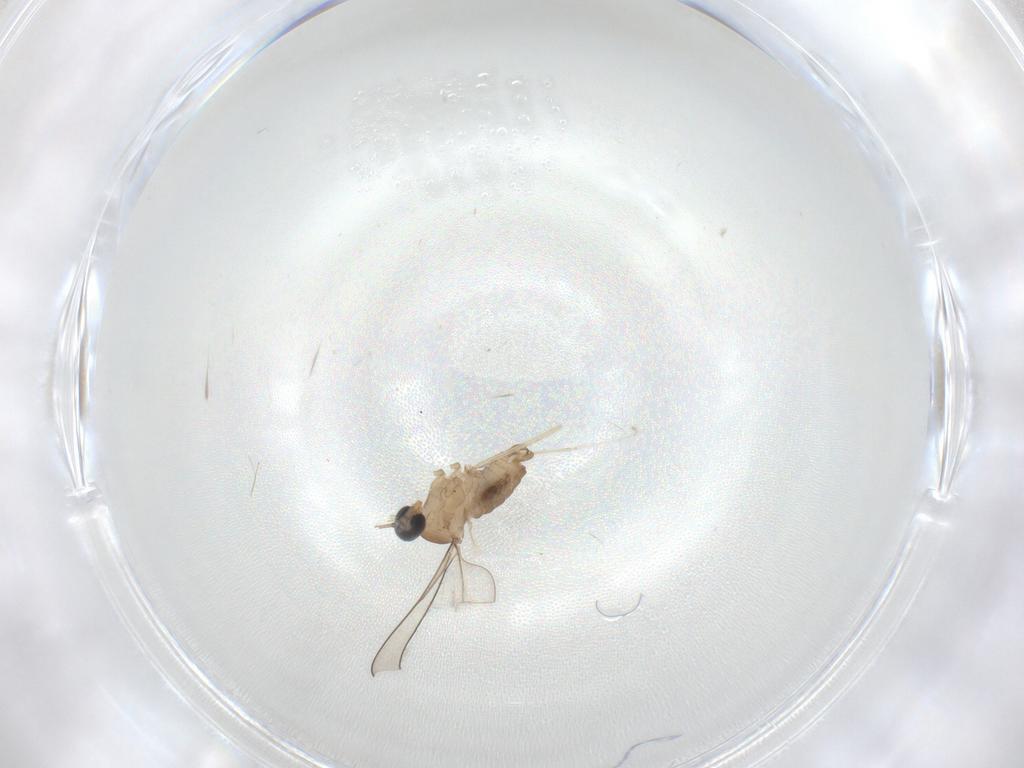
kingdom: Animalia
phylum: Arthropoda
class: Insecta
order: Diptera
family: Phoridae
